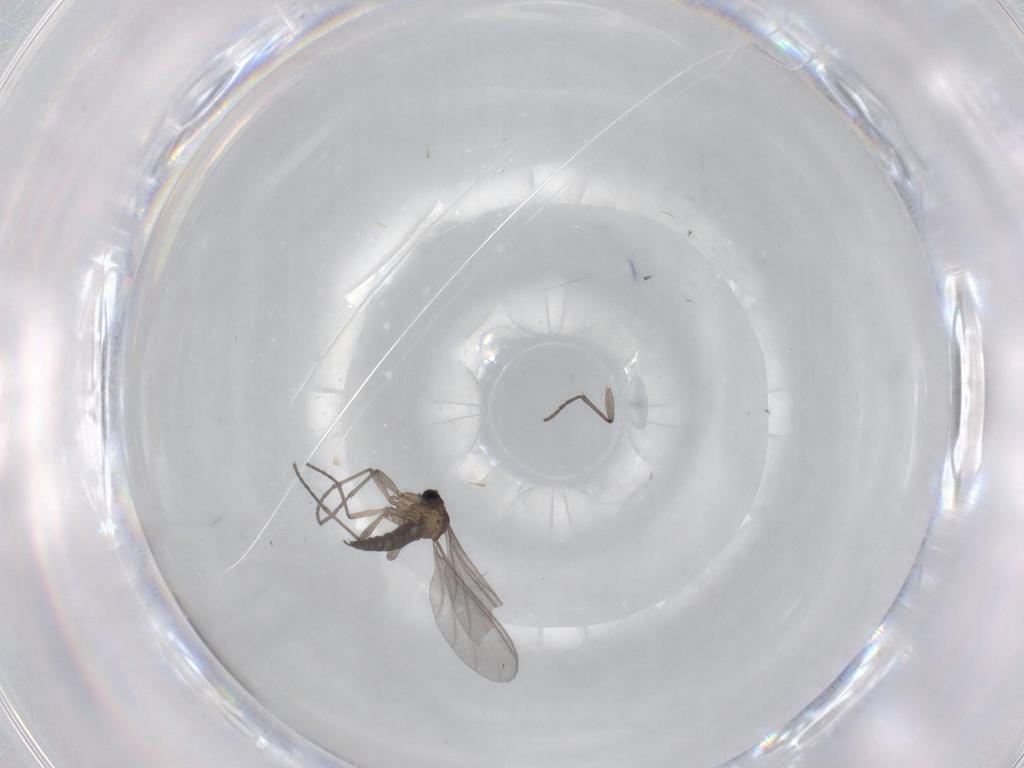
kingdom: Animalia
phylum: Arthropoda
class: Insecta
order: Diptera
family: Sciaridae
